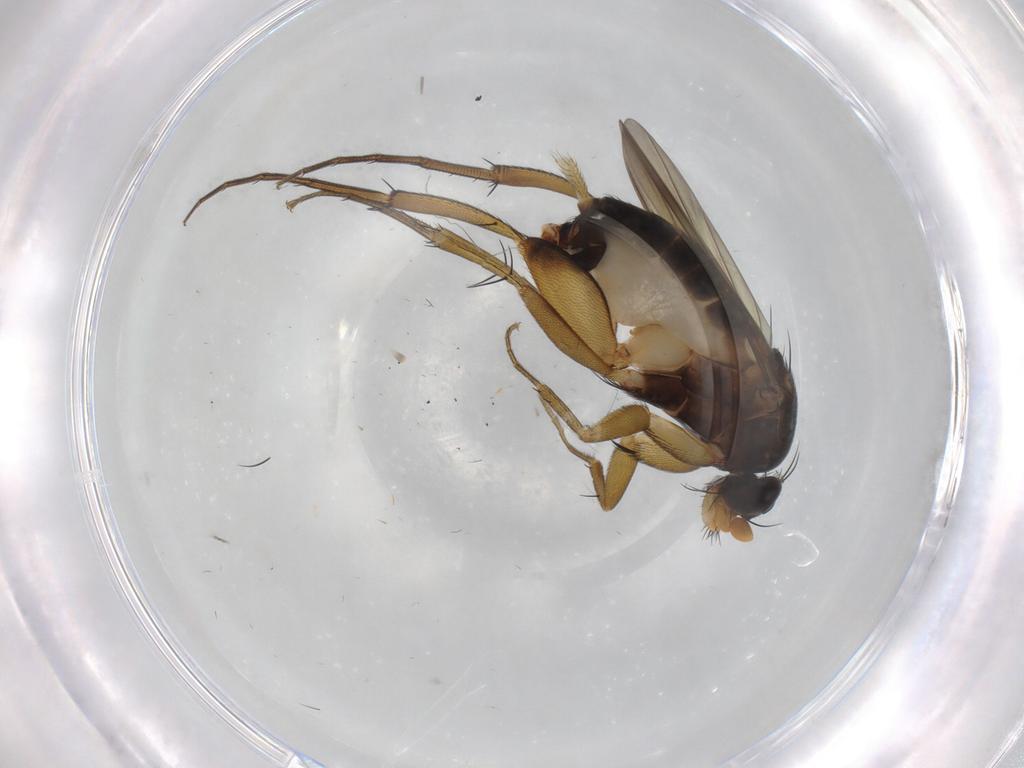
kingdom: Animalia
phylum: Arthropoda
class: Insecta
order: Diptera
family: Phoridae
